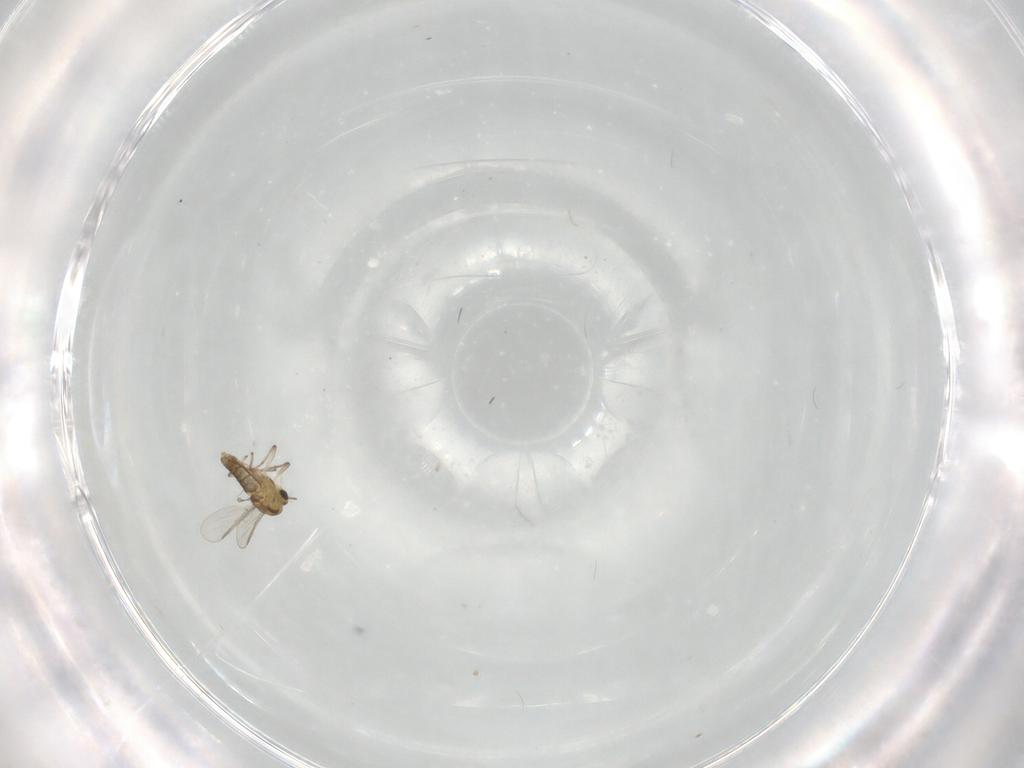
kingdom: Animalia
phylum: Arthropoda
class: Insecta
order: Diptera
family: Chironomidae
